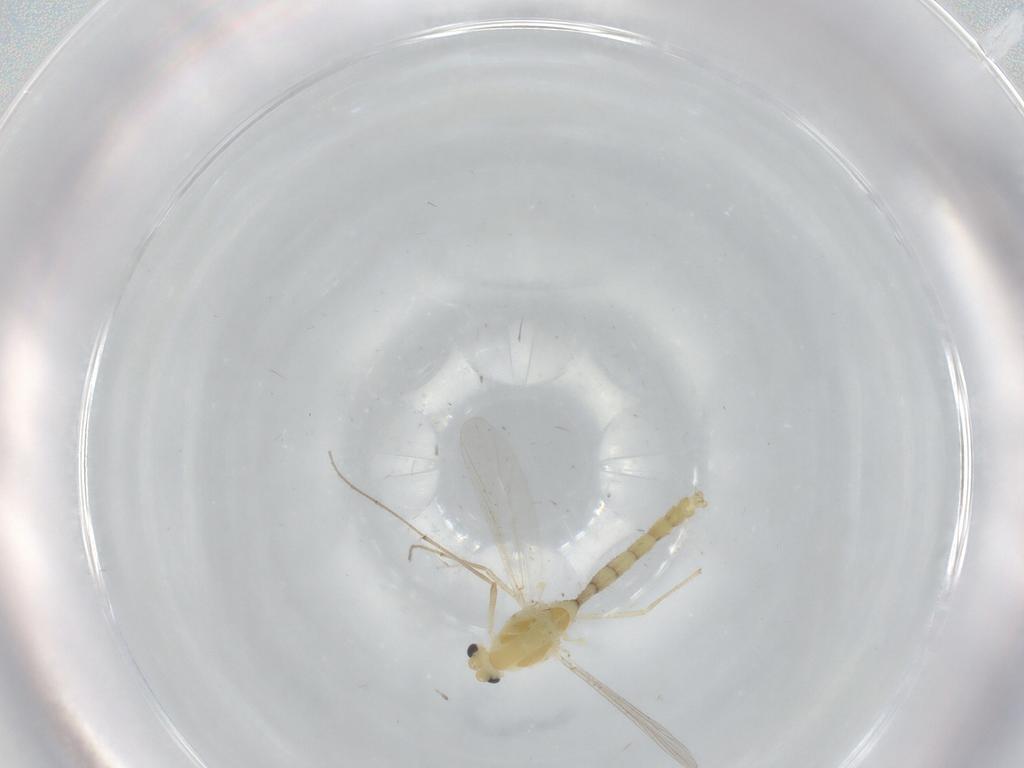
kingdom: Animalia
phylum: Arthropoda
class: Insecta
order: Diptera
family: Chironomidae
